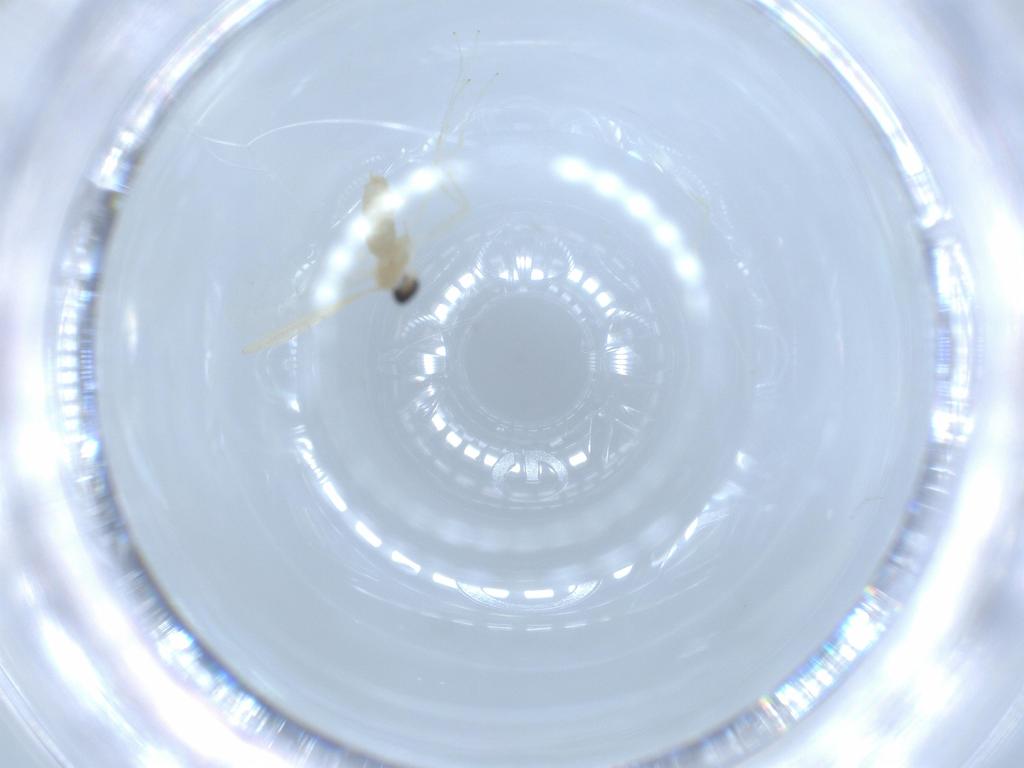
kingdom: Animalia
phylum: Arthropoda
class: Insecta
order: Diptera
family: Cecidomyiidae
